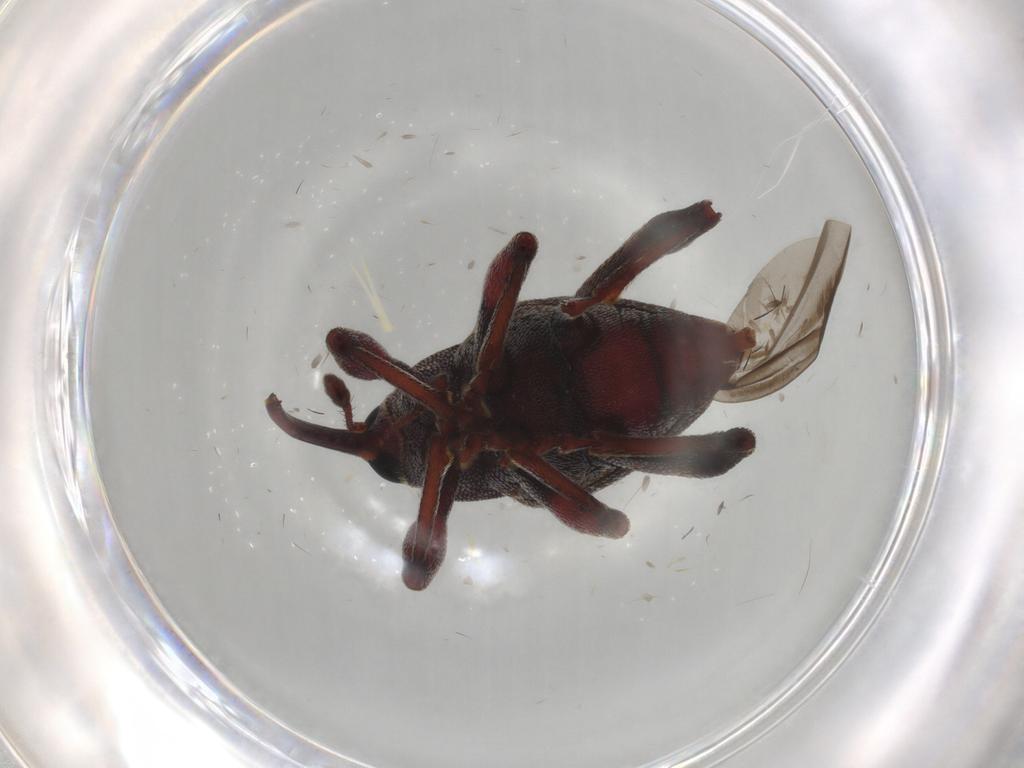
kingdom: Animalia
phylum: Arthropoda
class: Insecta
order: Coleoptera
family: Curculionidae
